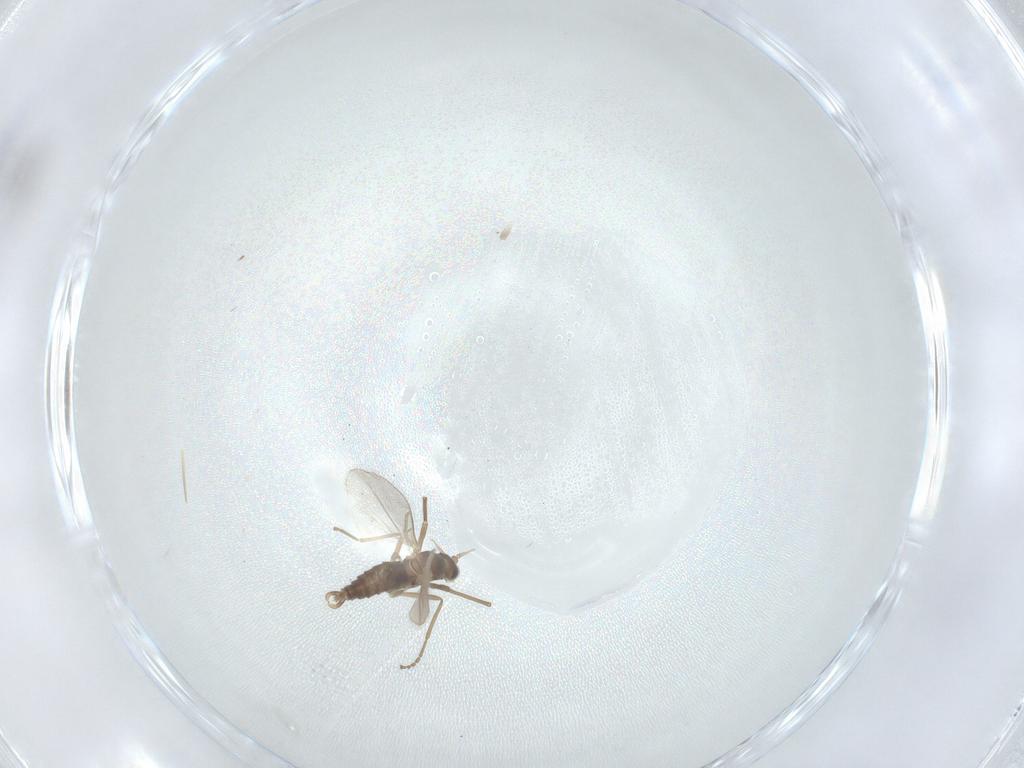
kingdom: Animalia
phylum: Arthropoda
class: Insecta
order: Diptera
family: Cecidomyiidae
